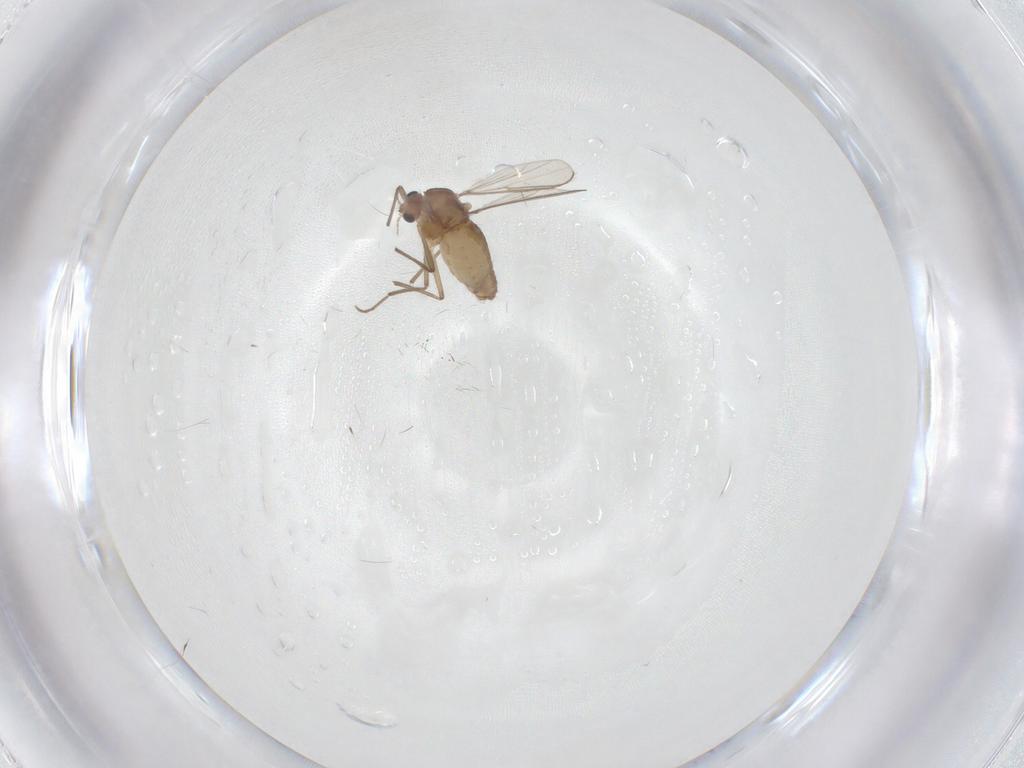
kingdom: Animalia
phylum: Arthropoda
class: Insecta
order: Diptera
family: Chironomidae
